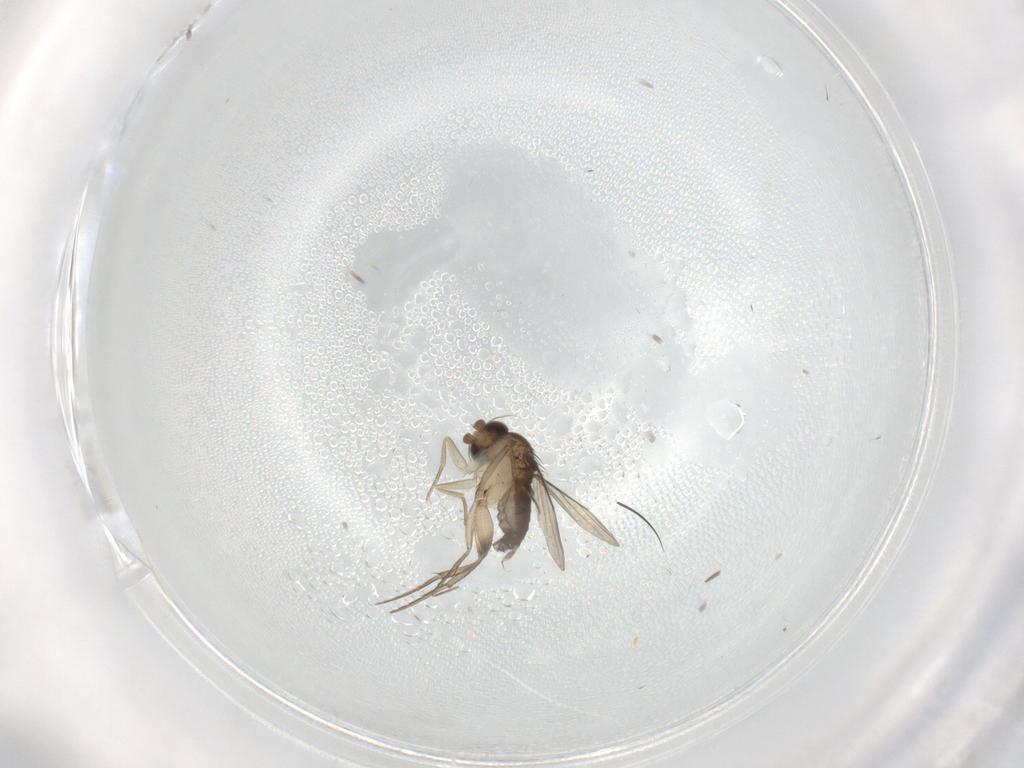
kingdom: Animalia
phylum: Arthropoda
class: Insecta
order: Diptera
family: Phoridae
